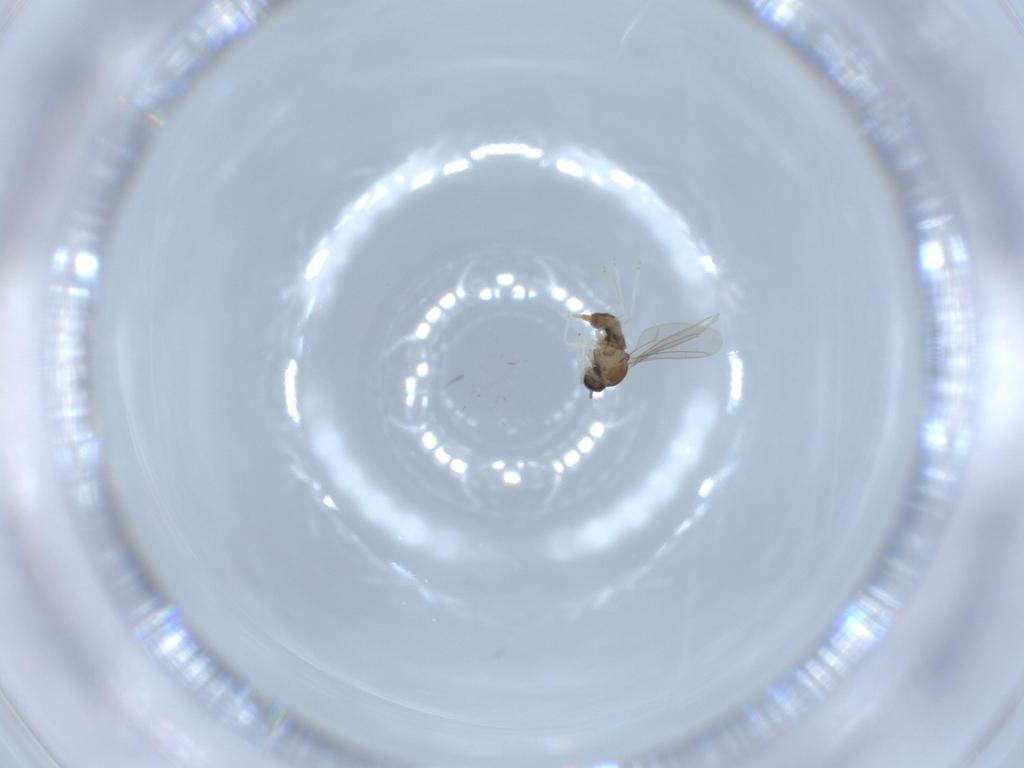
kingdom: Animalia
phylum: Arthropoda
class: Insecta
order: Diptera
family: Cecidomyiidae
